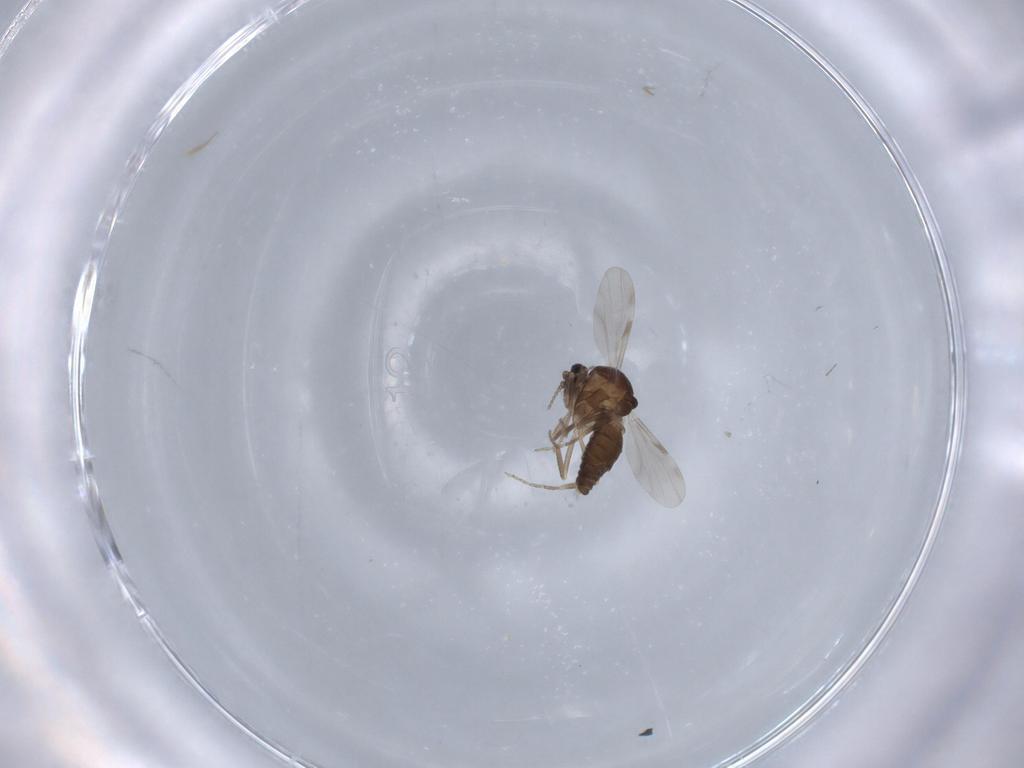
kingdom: Animalia
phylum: Arthropoda
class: Insecta
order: Diptera
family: Ceratopogonidae
